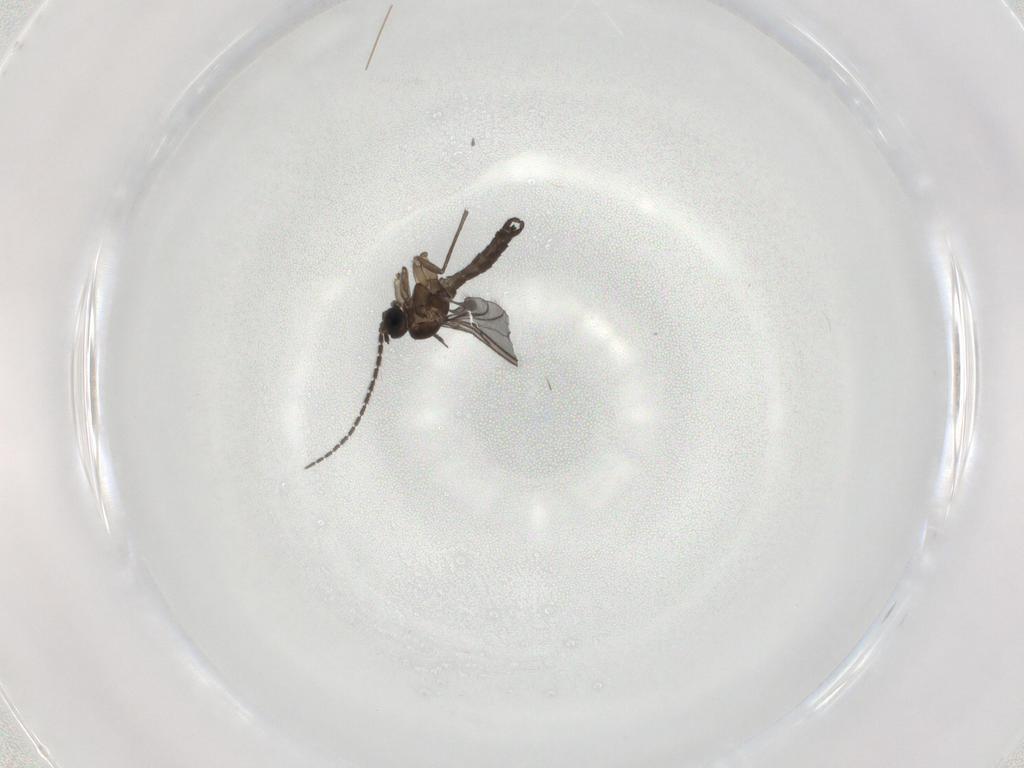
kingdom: Animalia
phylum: Arthropoda
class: Insecta
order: Diptera
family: Sciaridae
